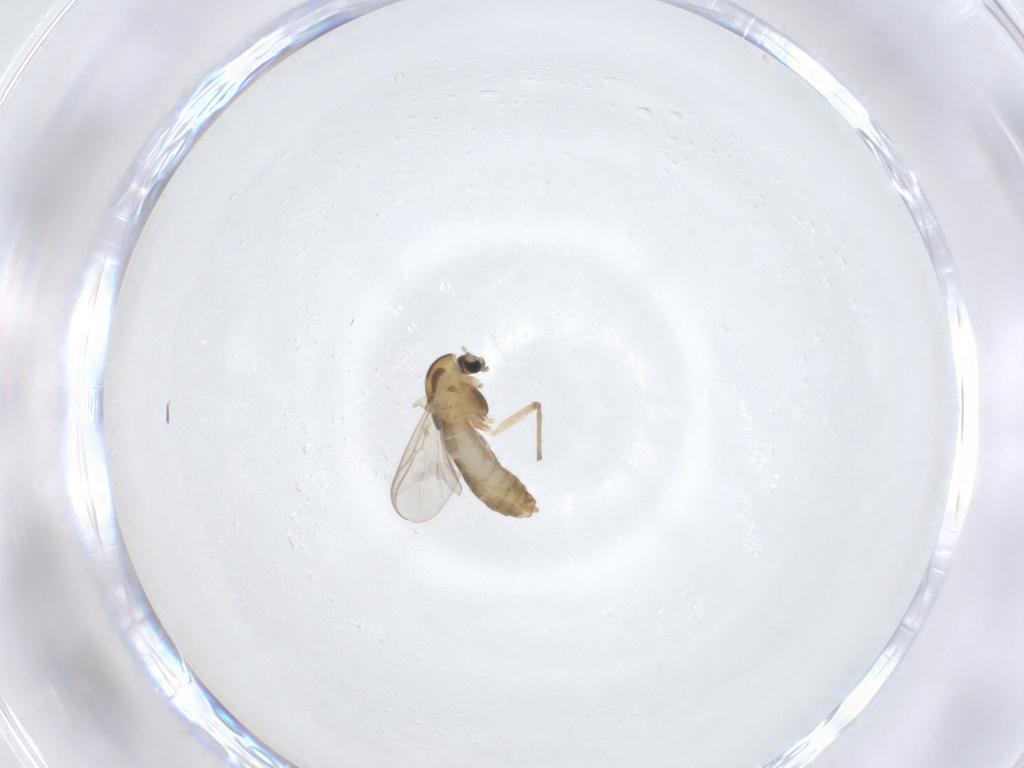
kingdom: Animalia
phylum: Arthropoda
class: Insecta
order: Diptera
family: Chironomidae
